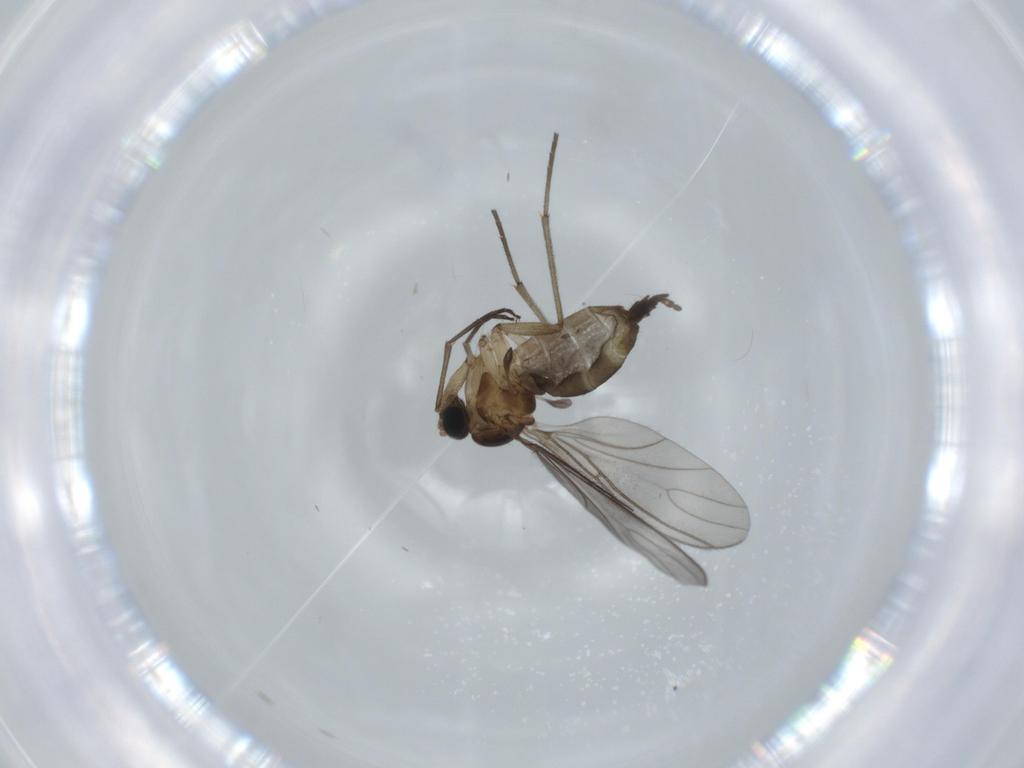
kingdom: Animalia
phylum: Arthropoda
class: Insecta
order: Diptera
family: Sciaridae
